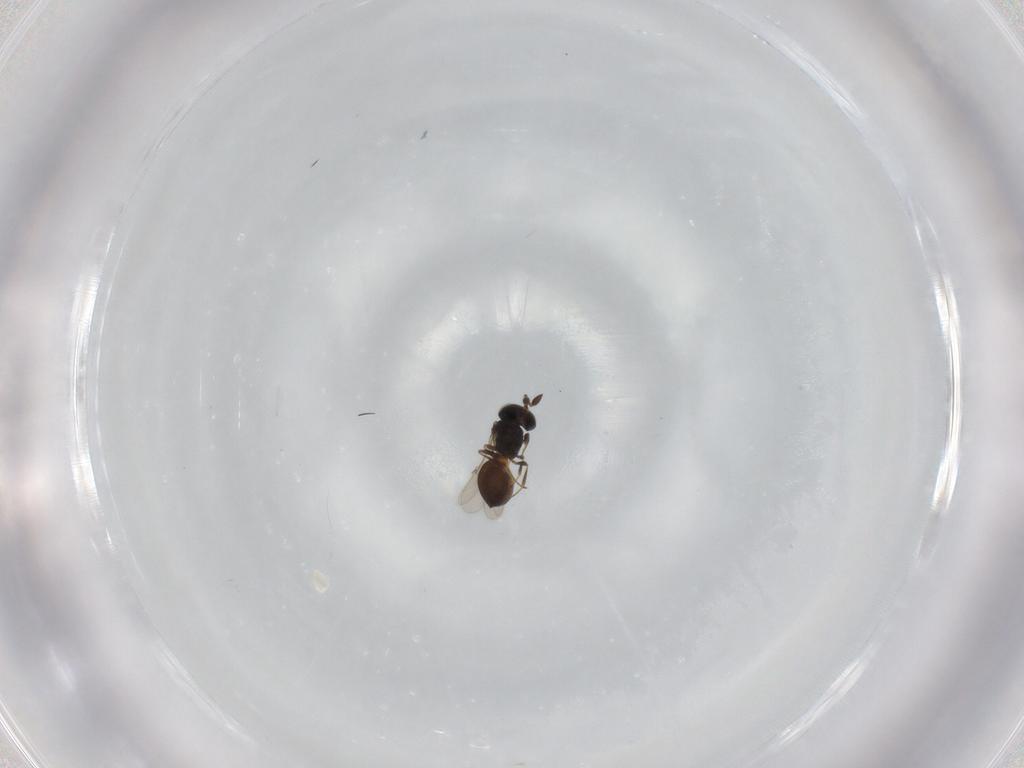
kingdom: Animalia
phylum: Arthropoda
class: Insecta
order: Hymenoptera
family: Scelionidae
